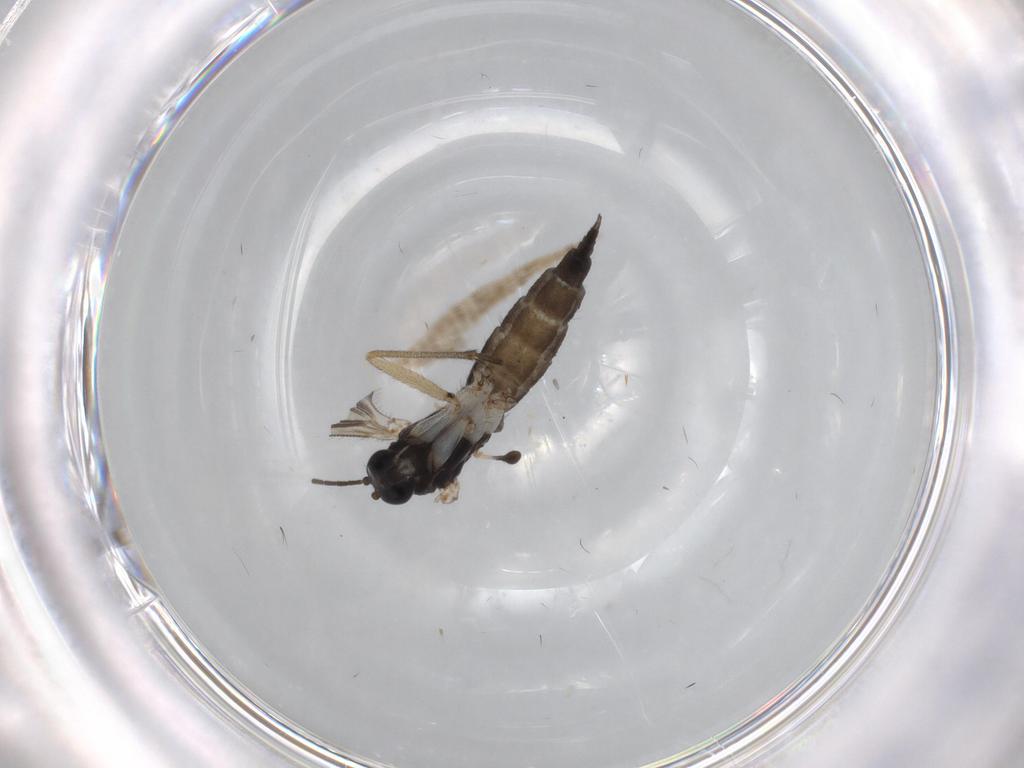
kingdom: Animalia
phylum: Arthropoda
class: Insecta
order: Diptera
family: Sciaridae
